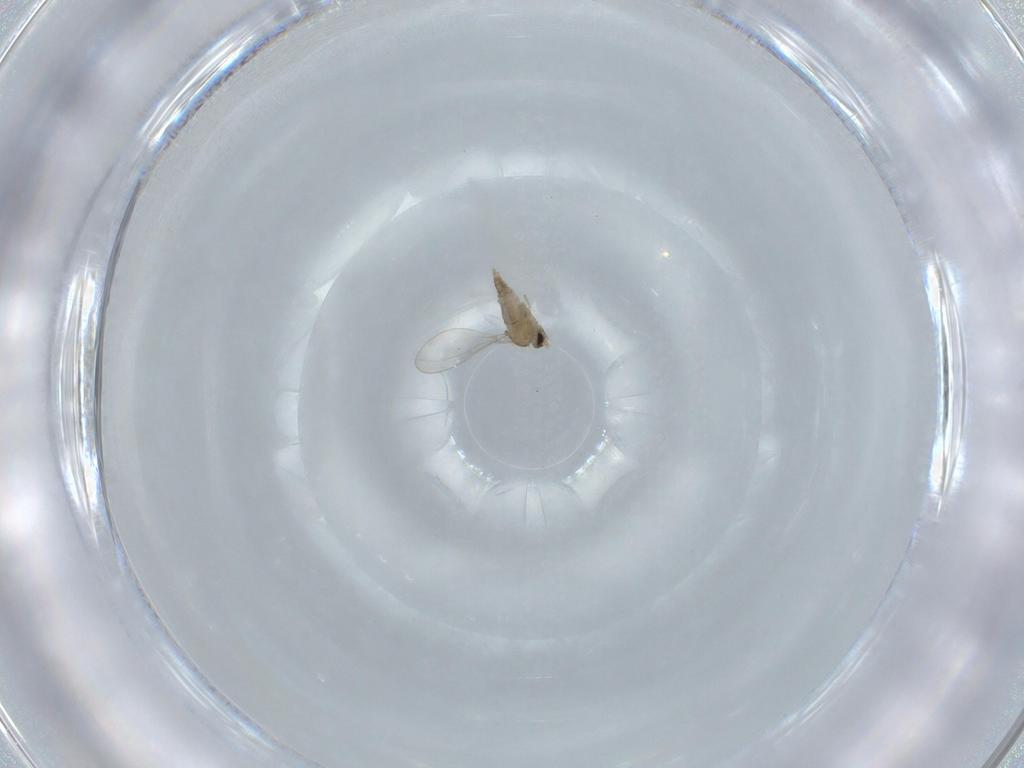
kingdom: Animalia
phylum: Arthropoda
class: Insecta
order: Diptera
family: Cecidomyiidae
